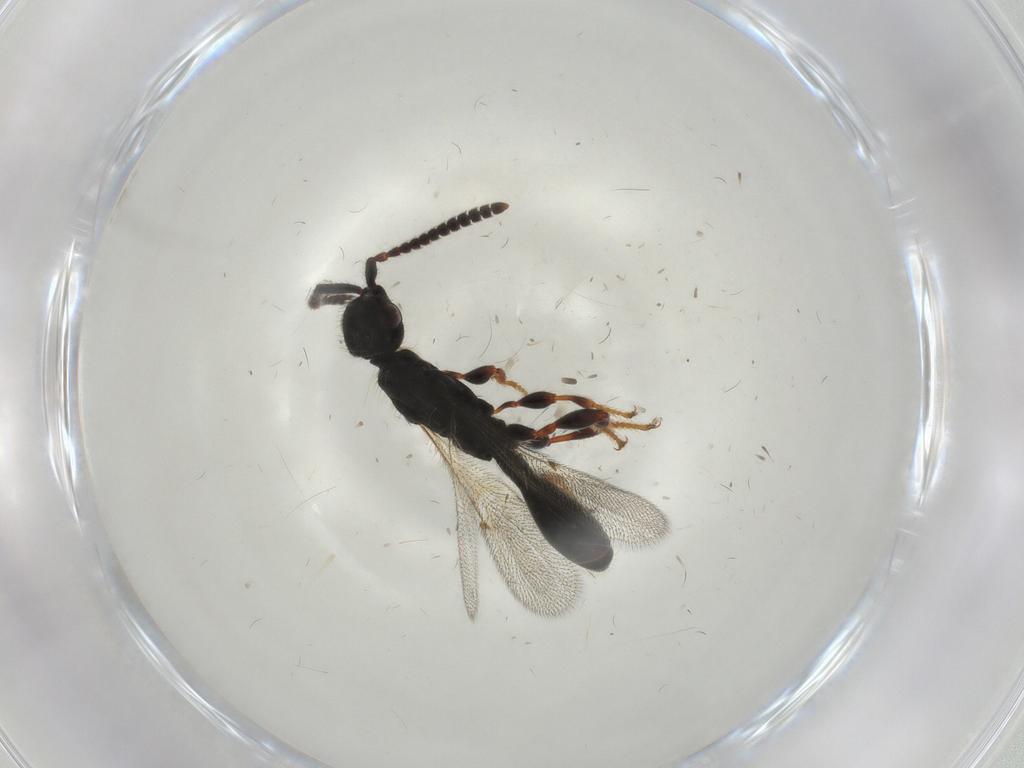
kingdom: Animalia
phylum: Arthropoda
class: Insecta
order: Hymenoptera
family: Diapriidae
